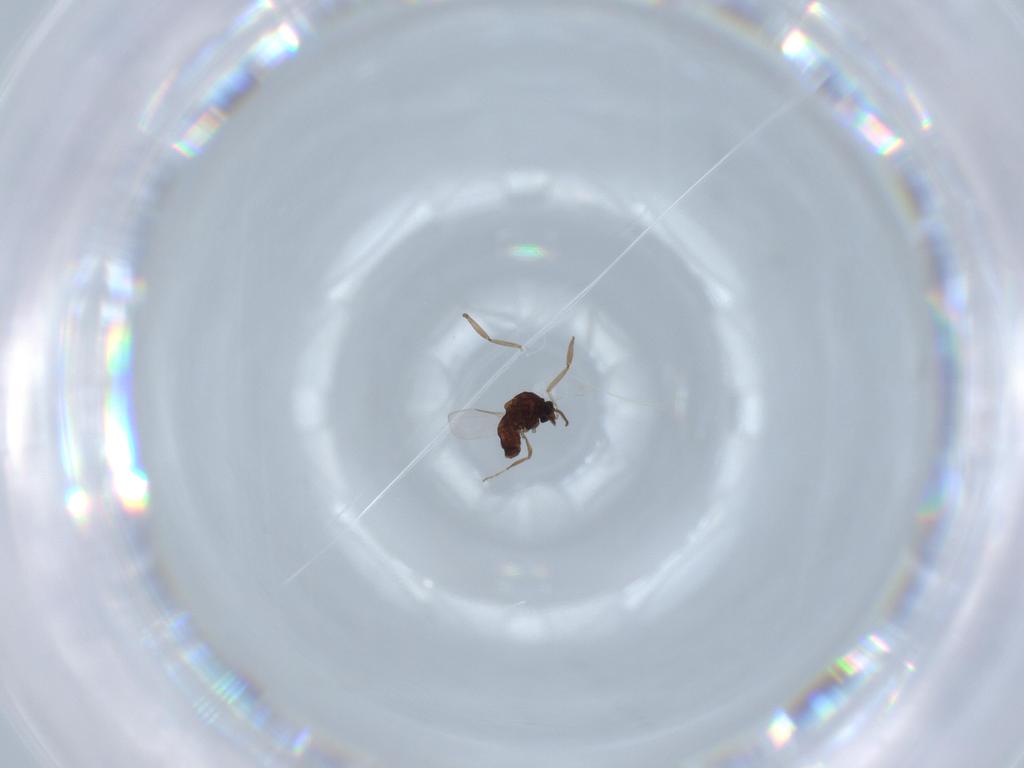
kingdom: Animalia
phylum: Arthropoda
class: Insecta
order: Diptera
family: Ceratopogonidae
